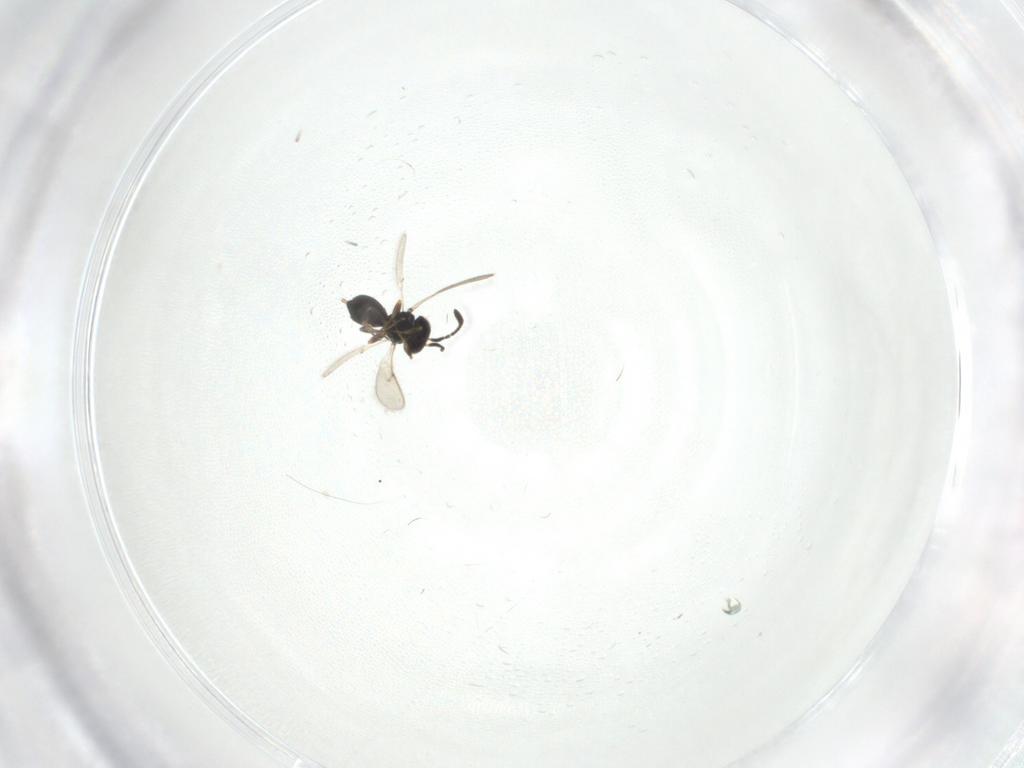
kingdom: Animalia
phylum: Arthropoda
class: Insecta
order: Hymenoptera
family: Scelionidae
